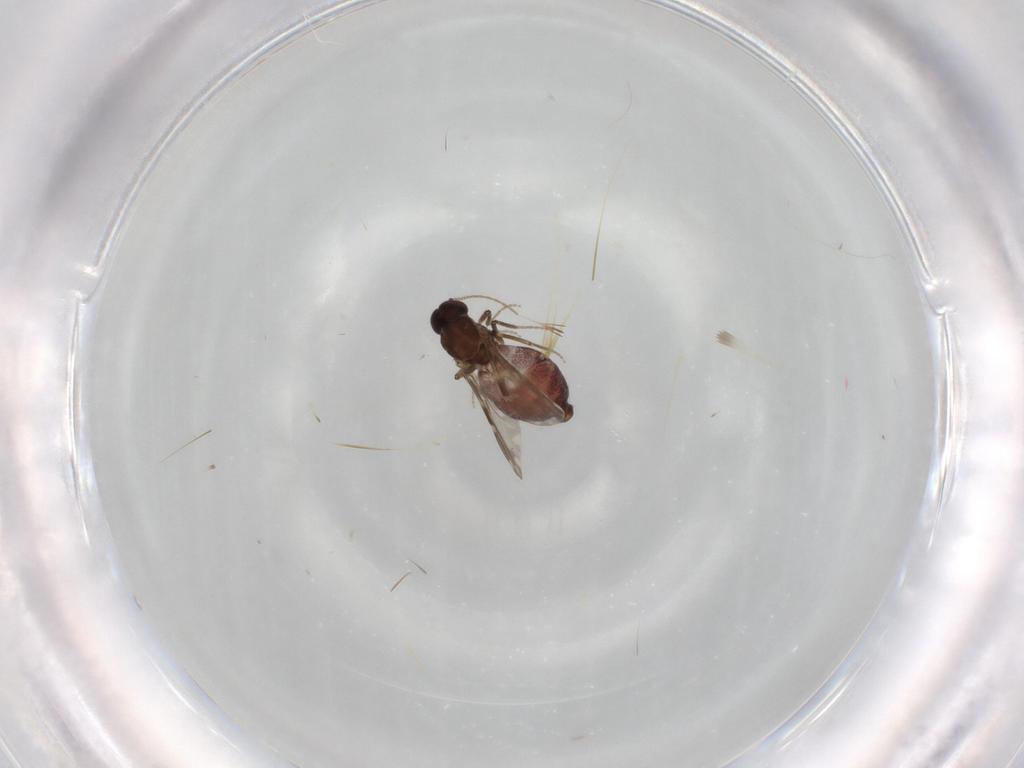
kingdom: Animalia
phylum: Arthropoda
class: Insecta
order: Diptera
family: Ceratopogonidae
